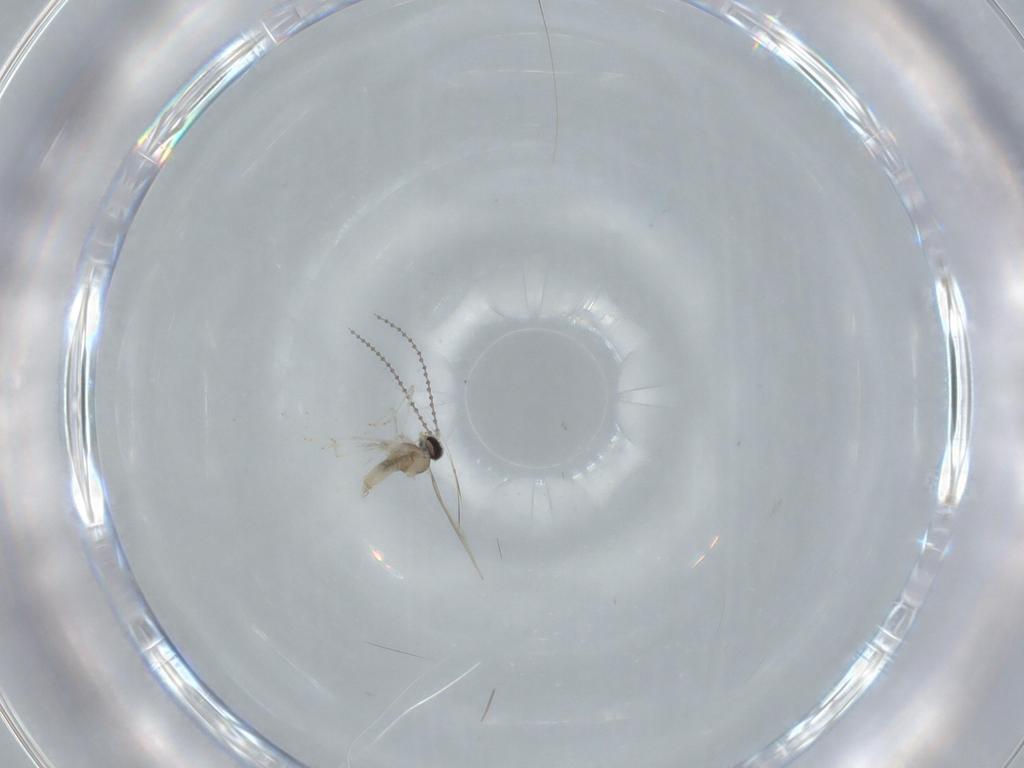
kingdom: Animalia
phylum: Arthropoda
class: Insecta
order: Diptera
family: Cecidomyiidae
